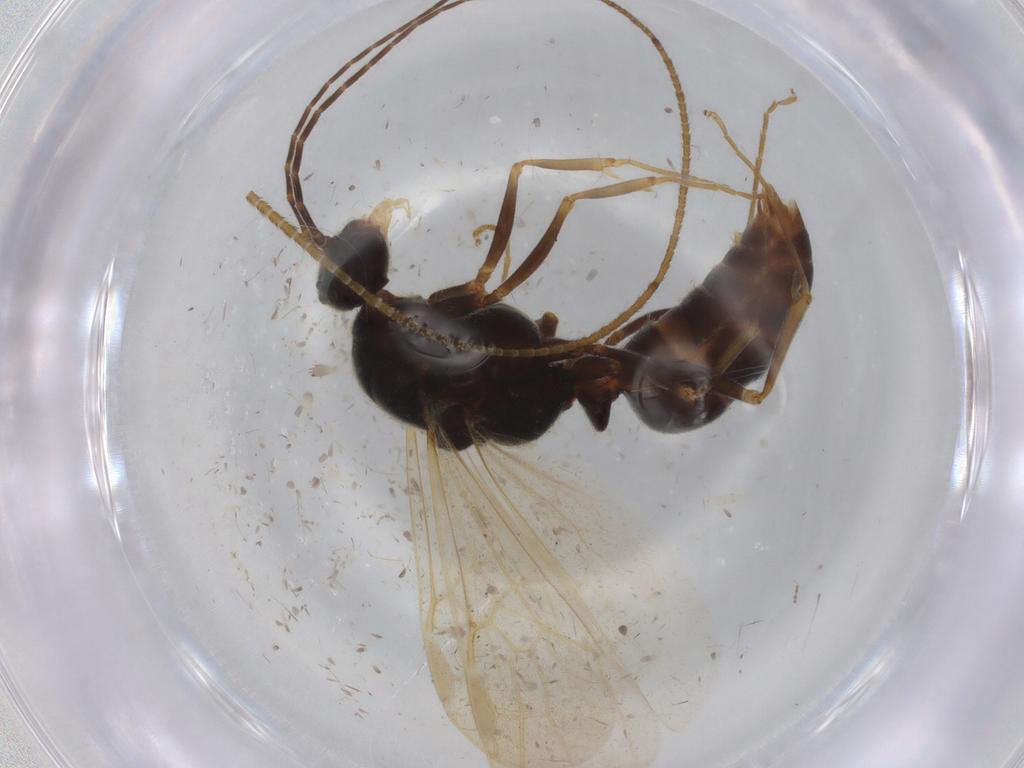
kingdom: Animalia
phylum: Arthropoda
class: Insecta
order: Hymenoptera
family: Formicidae
